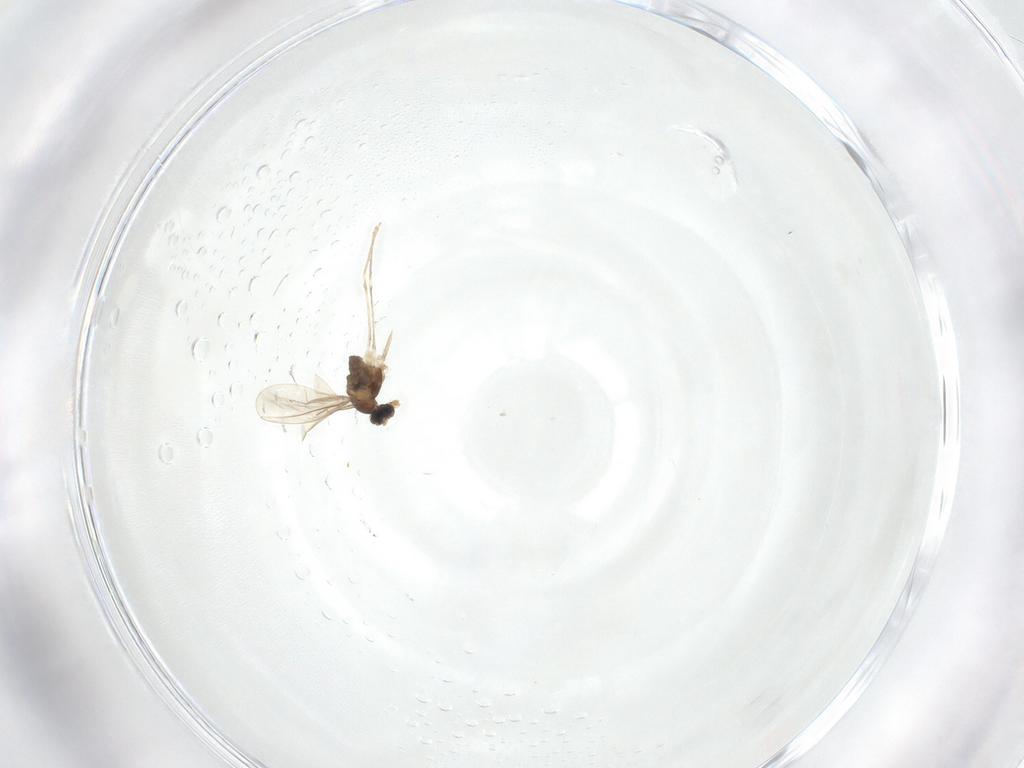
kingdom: Animalia
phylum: Arthropoda
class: Insecta
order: Diptera
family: Cecidomyiidae
